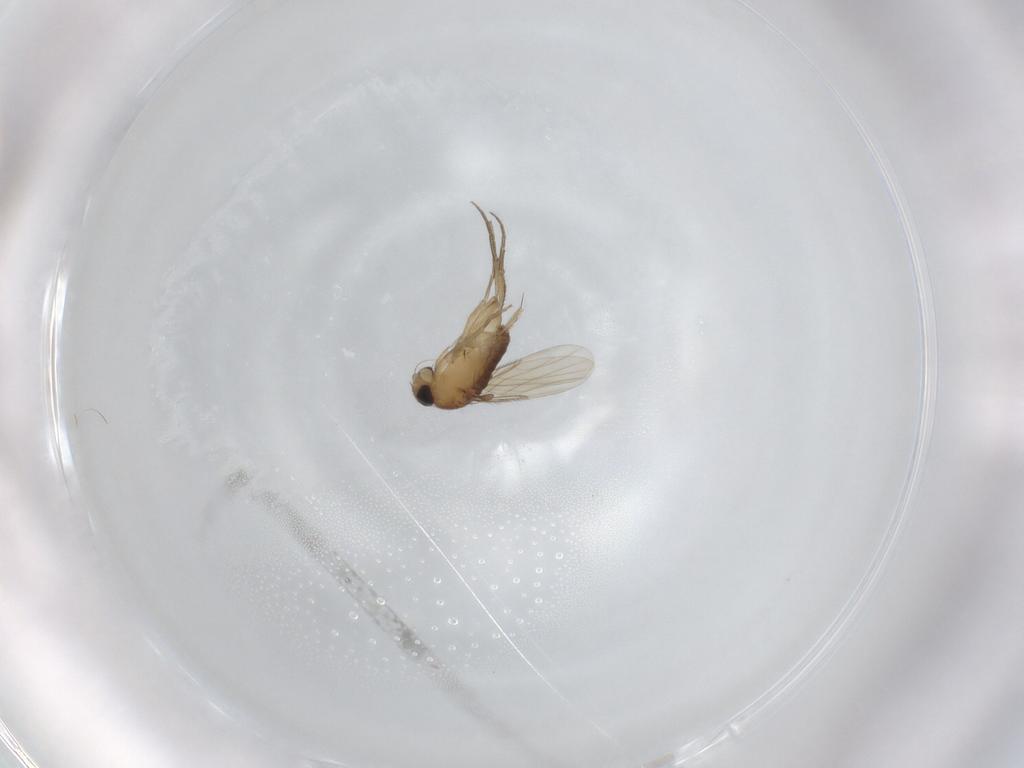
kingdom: Animalia
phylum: Arthropoda
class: Insecta
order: Diptera
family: Phoridae
